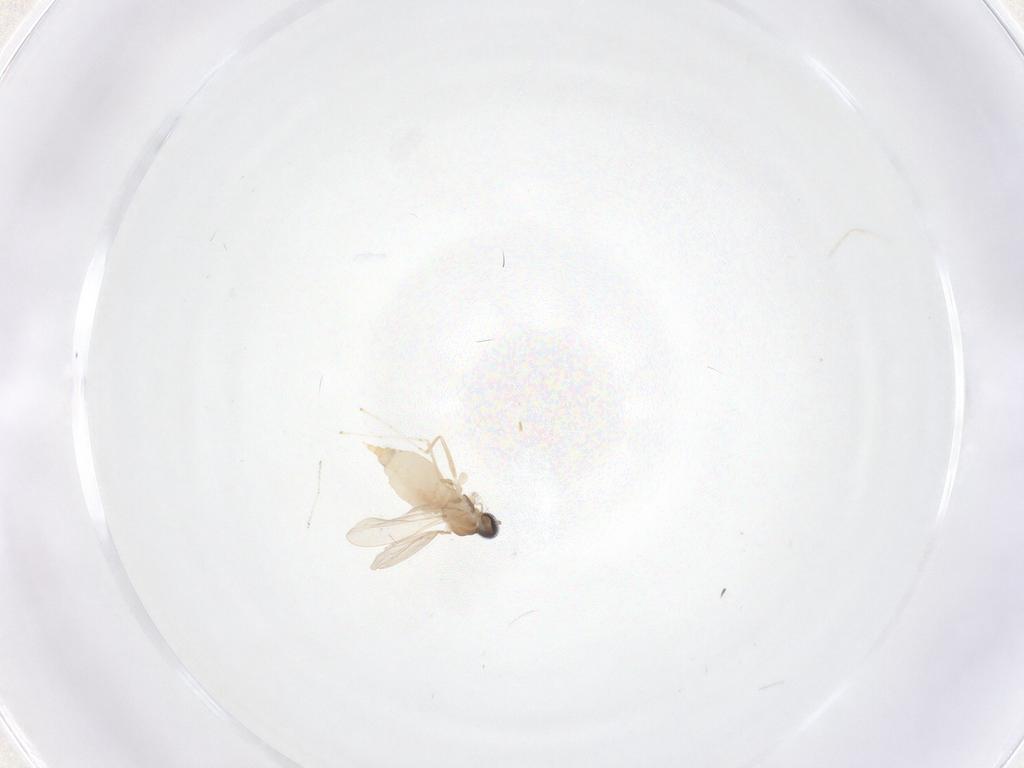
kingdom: Animalia
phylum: Arthropoda
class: Insecta
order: Diptera
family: Cecidomyiidae
